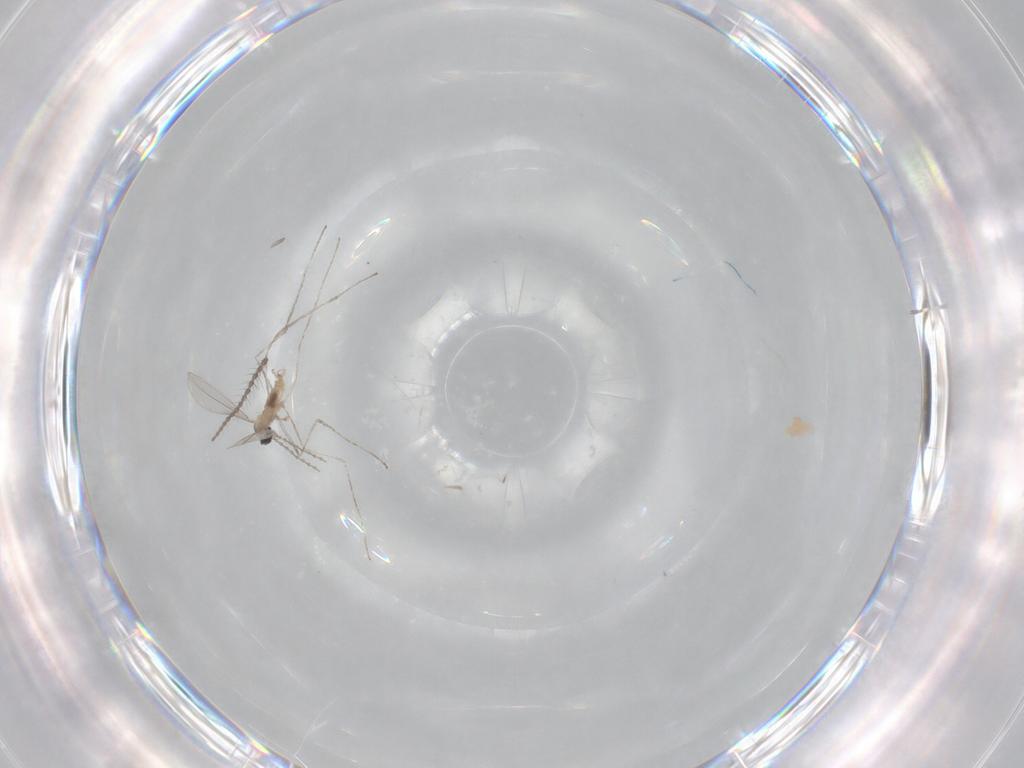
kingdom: Animalia
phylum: Arthropoda
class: Insecta
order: Diptera
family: Cecidomyiidae
